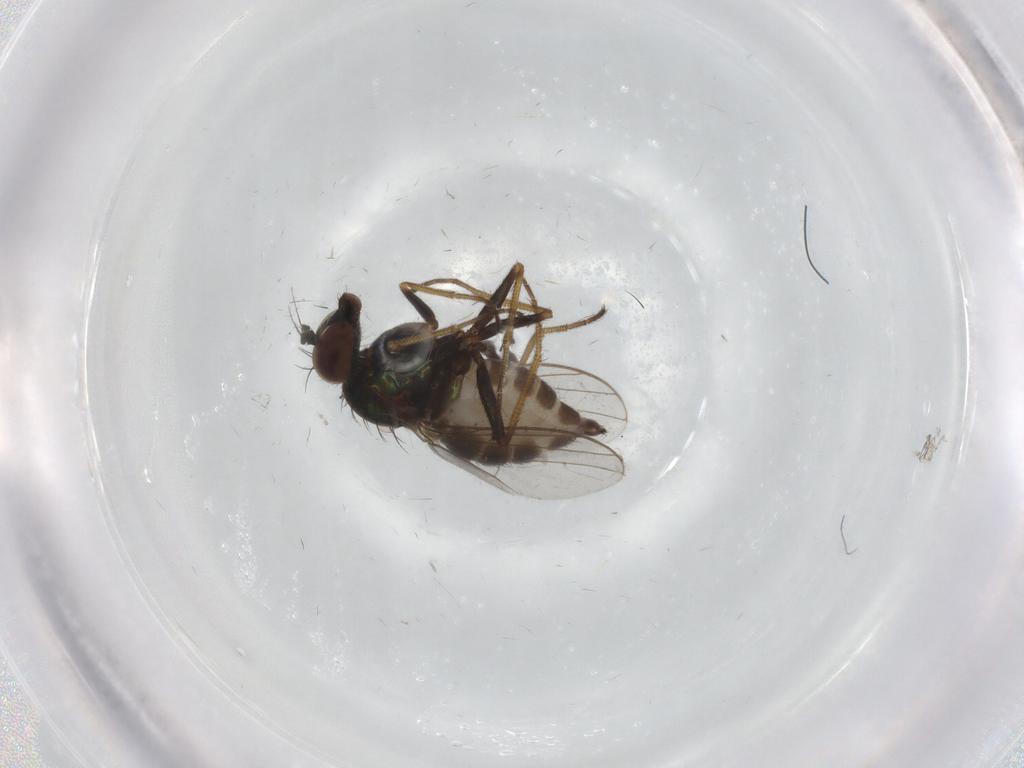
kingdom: Animalia
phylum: Arthropoda
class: Insecta
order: Diptera
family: Dolichopodidae
